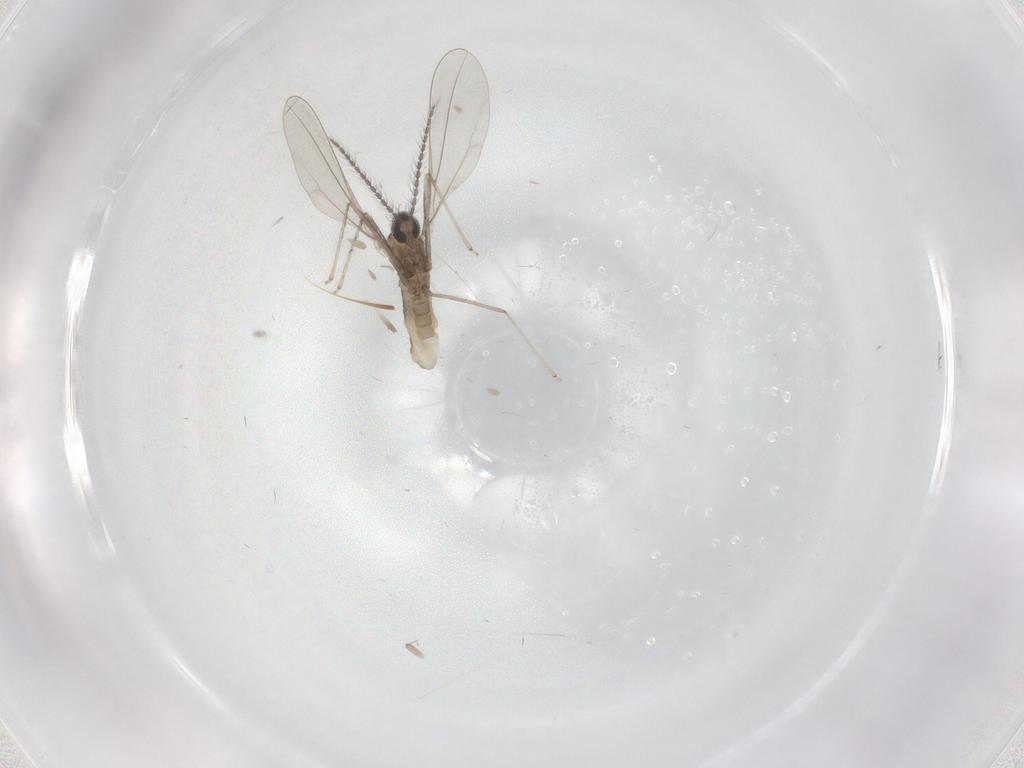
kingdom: Animalia
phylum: Arthropoda
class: Insecta
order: Diptera
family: Cecidomyiidae
